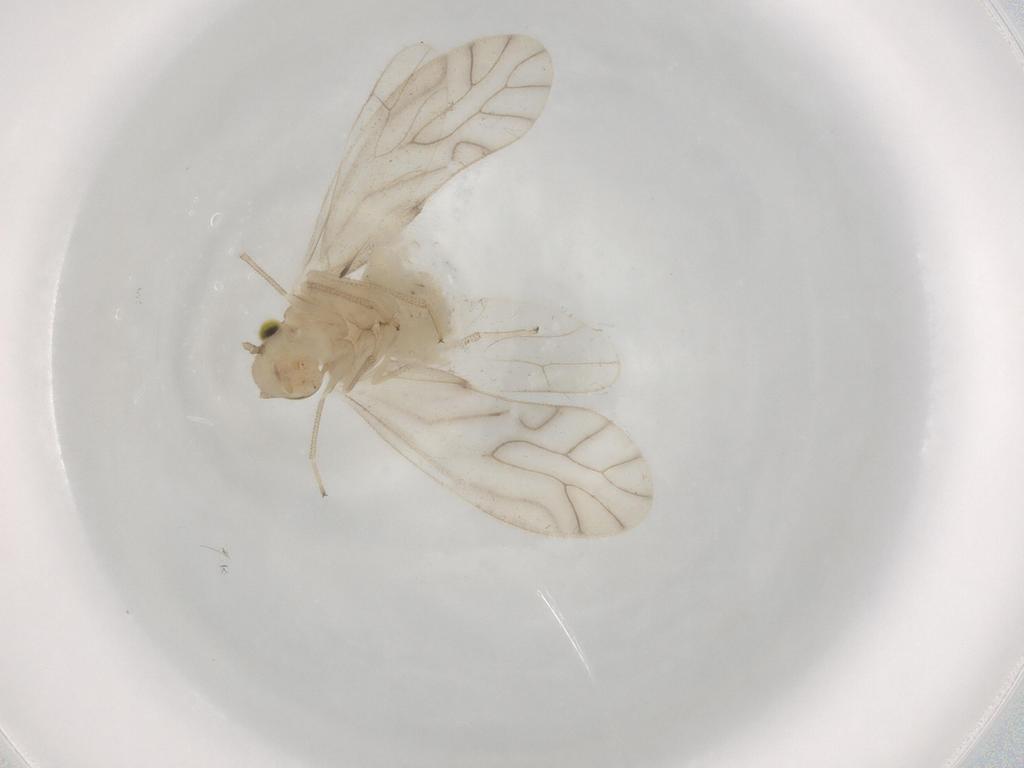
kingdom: Animalia
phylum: Arthropoda
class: Insecta
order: Psocodea
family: Caeciliusidae
